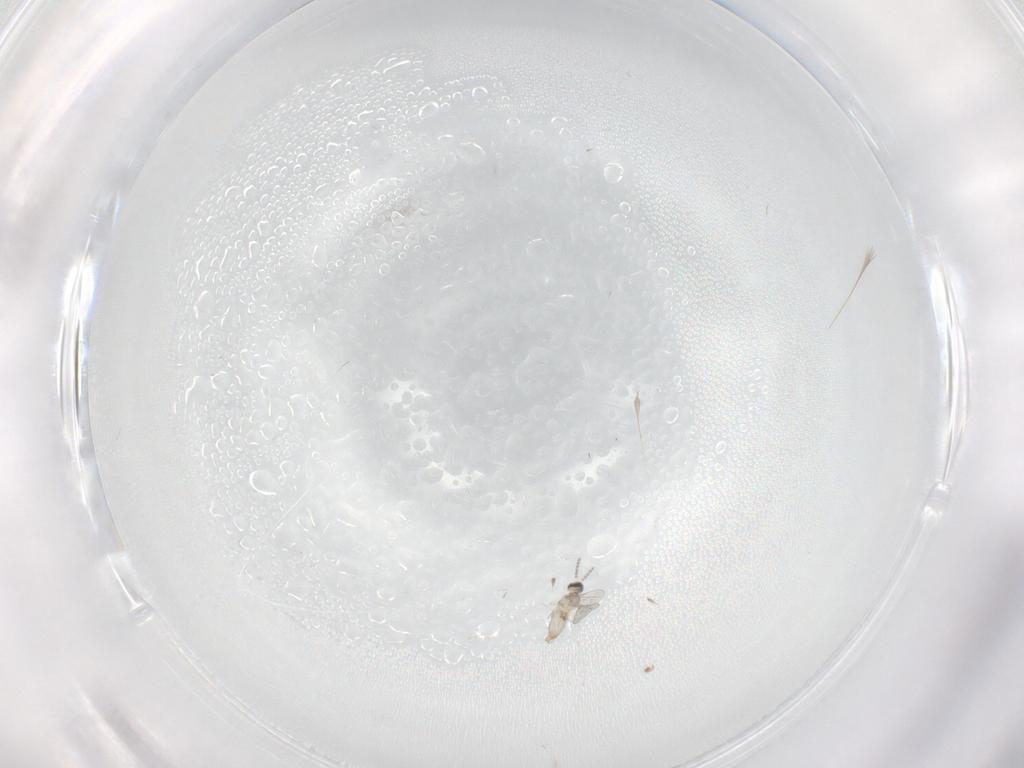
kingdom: Animalia
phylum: Arthropoda
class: Insecta
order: Diptera
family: Cecidomyiidae
